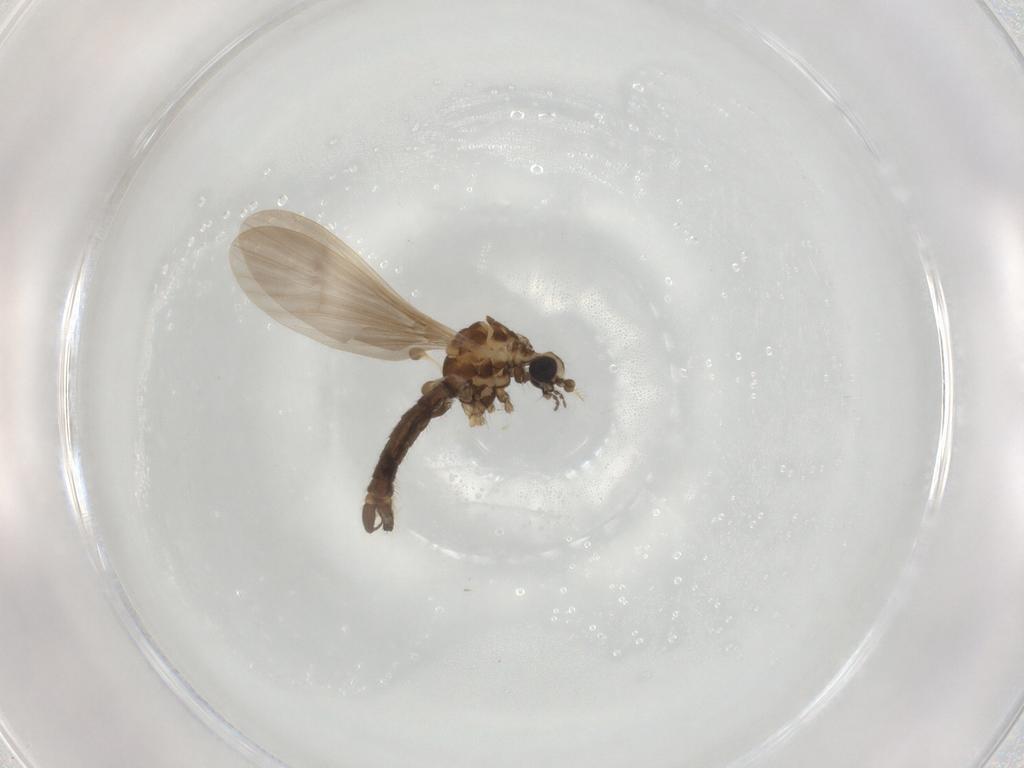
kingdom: Animalia
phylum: Arthropoda
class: Insecta
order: Diptera
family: Limoniidae
